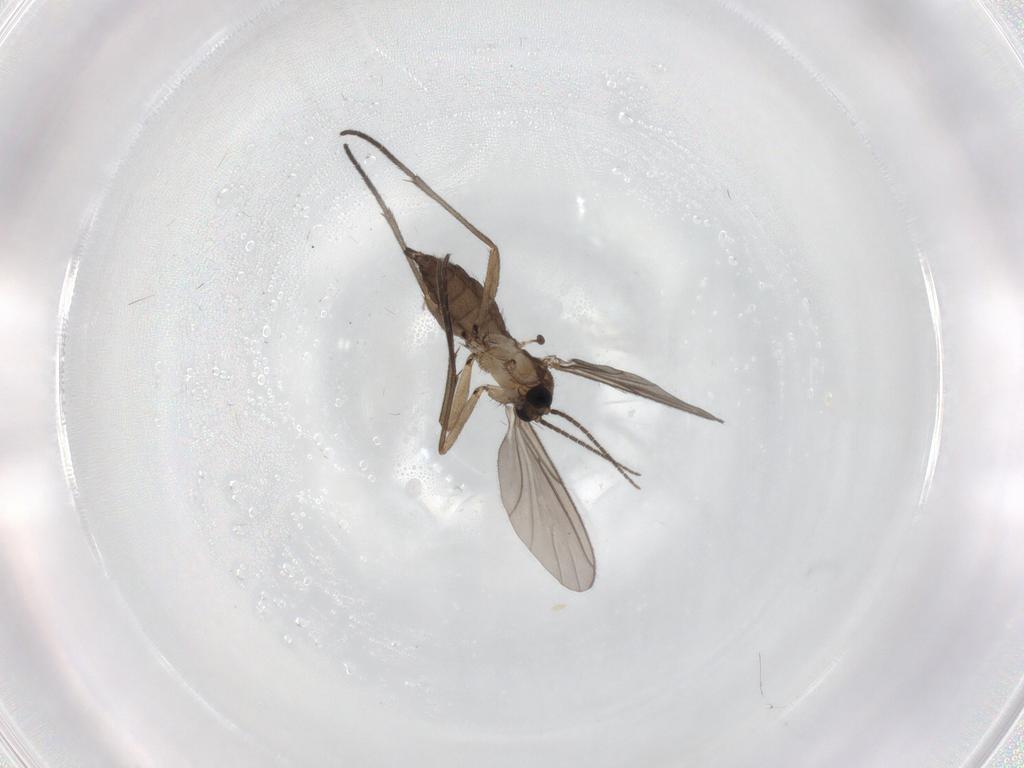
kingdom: Animalia
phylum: Arthropoda
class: Insecta
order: Diptera
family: Sciaridae
